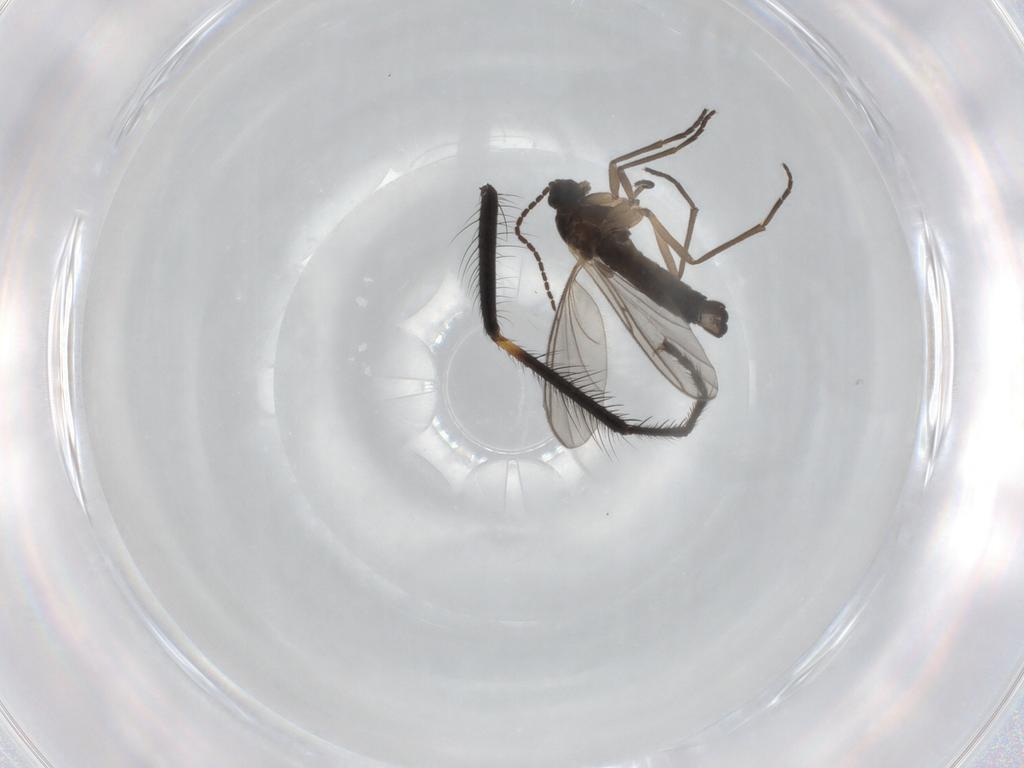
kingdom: Animalia
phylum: Arthropoda
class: Insecta
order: Diptera
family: Sciaridae
